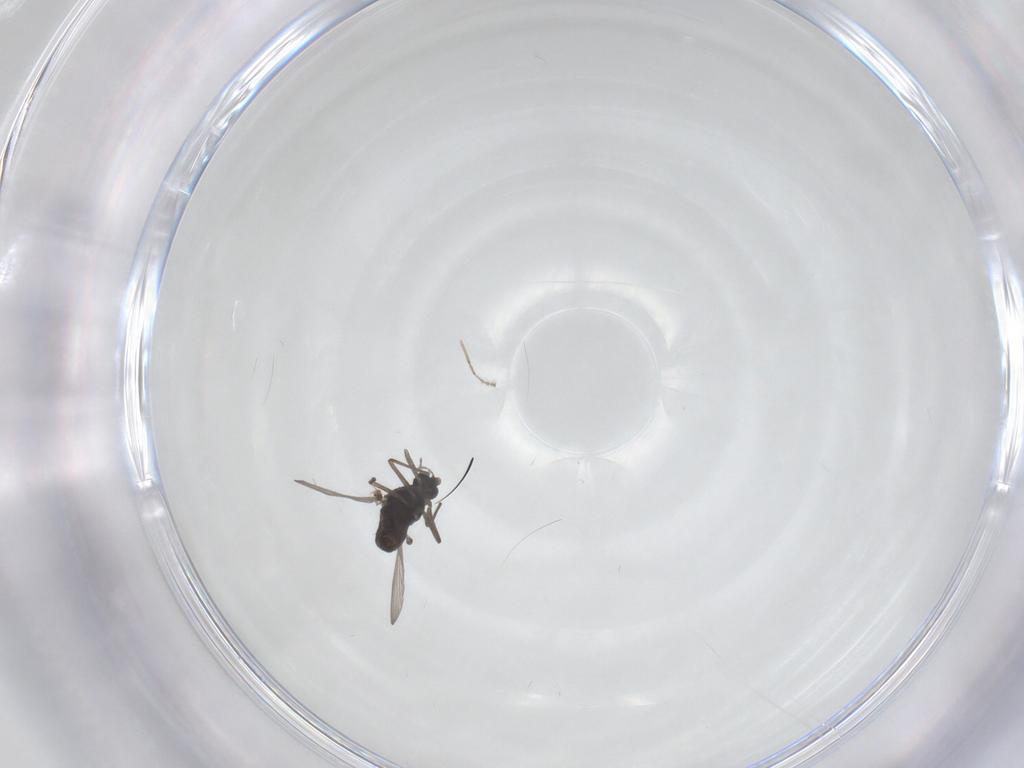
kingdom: Animalia
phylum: Arthropoda
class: Insecta
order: Diptera
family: Chironomidae
